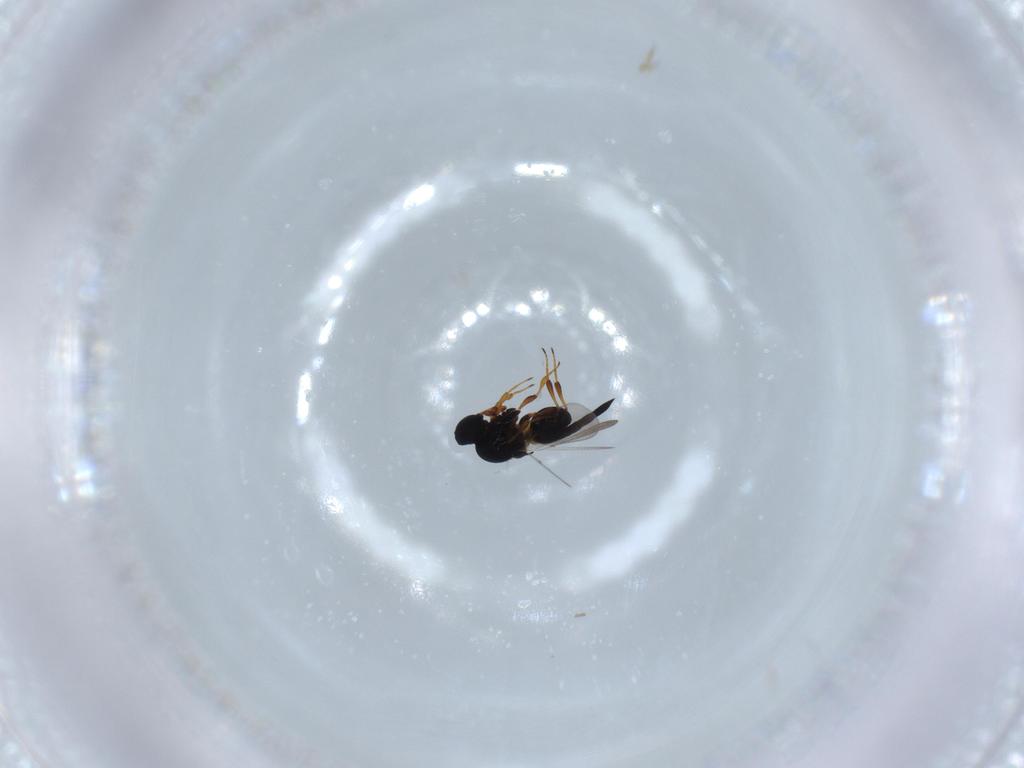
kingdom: Animalia
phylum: Arthropoda
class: Insecta
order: Hymenoptera
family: Platygastridae
